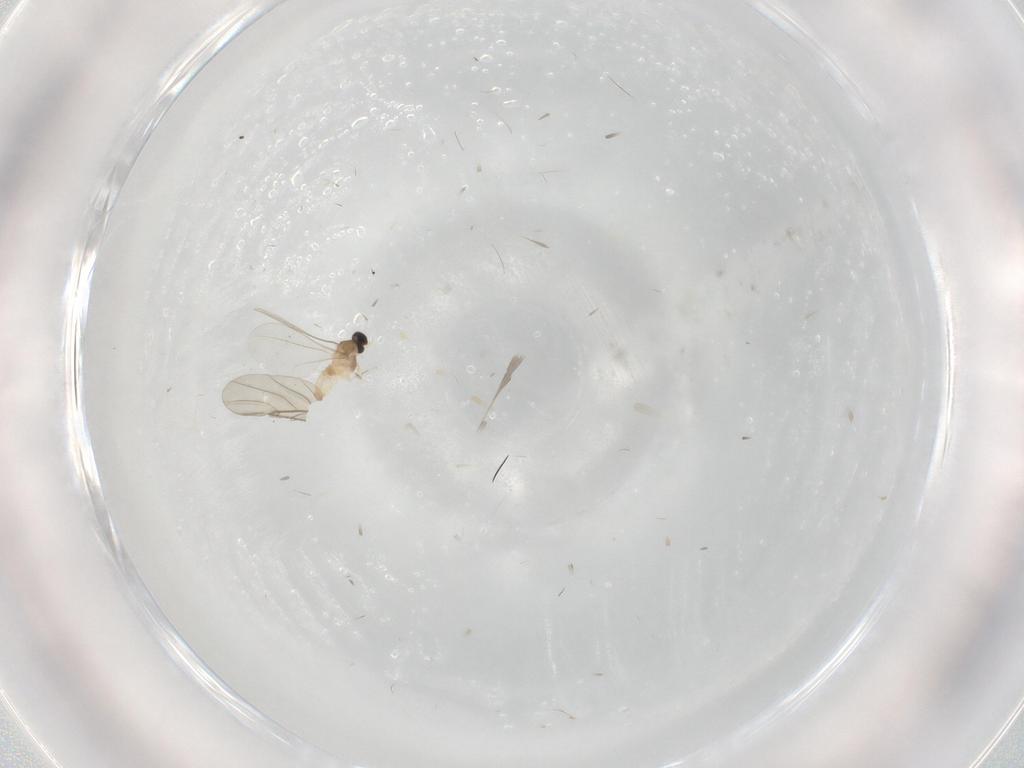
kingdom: Animalia
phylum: Arthropoda
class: Insecta
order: Diptera
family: Cecidomyiidae
